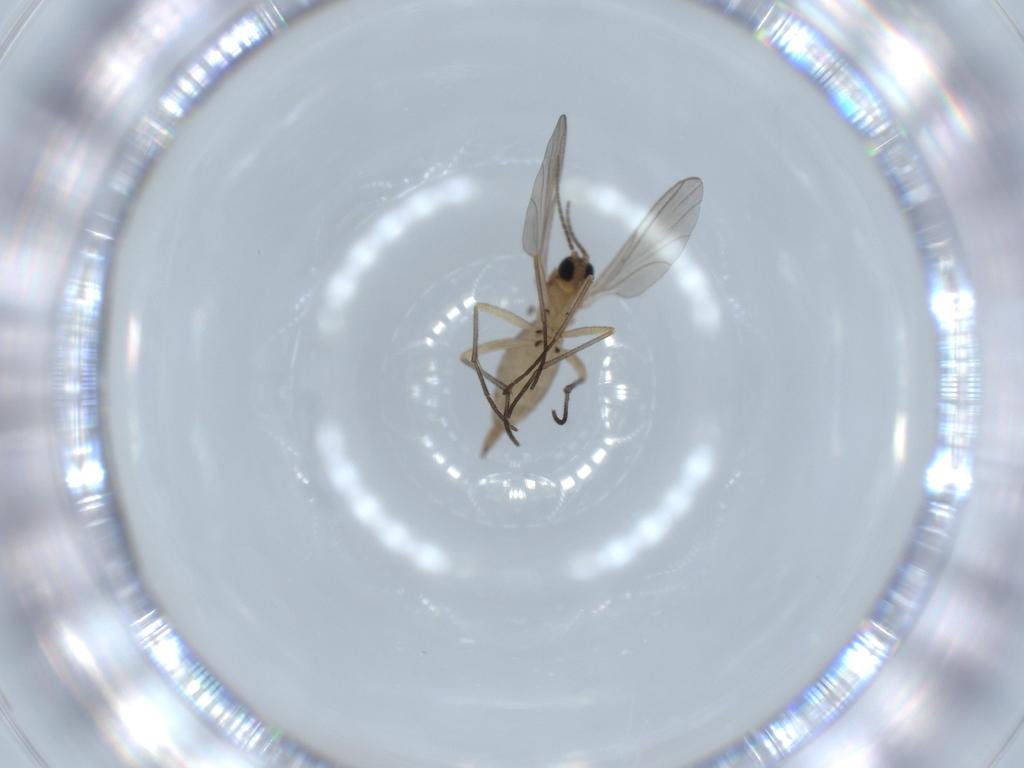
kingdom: Animalia
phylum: Arthropoda
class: Insecta
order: Diptera
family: Sciaridae
